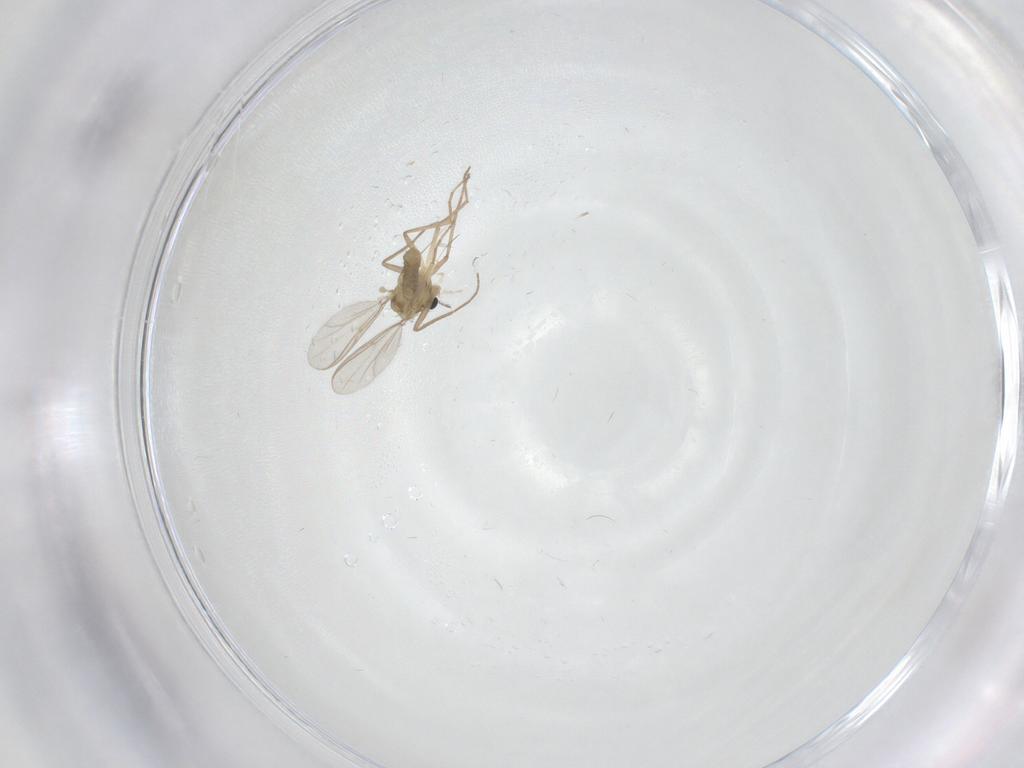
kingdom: Animalia
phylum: Arthropoda
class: Insecta
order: Diptera
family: Chironomidae
